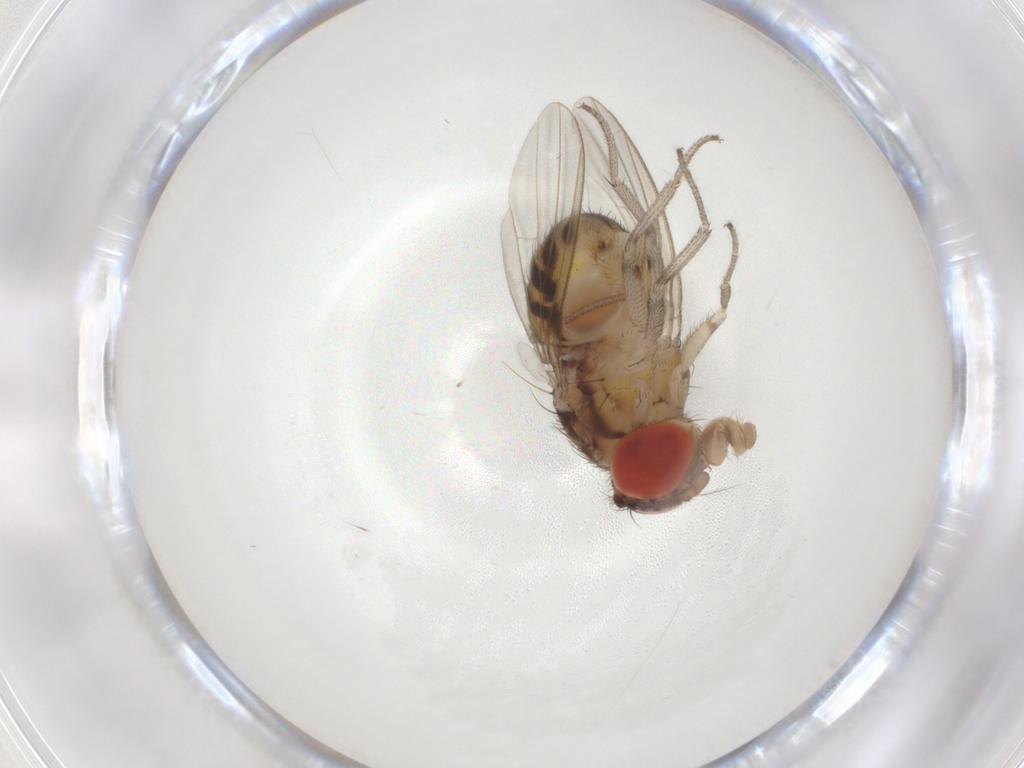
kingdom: Animalia
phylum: Arthropoda
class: Insecta
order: Diptera
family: Drosophilidae
